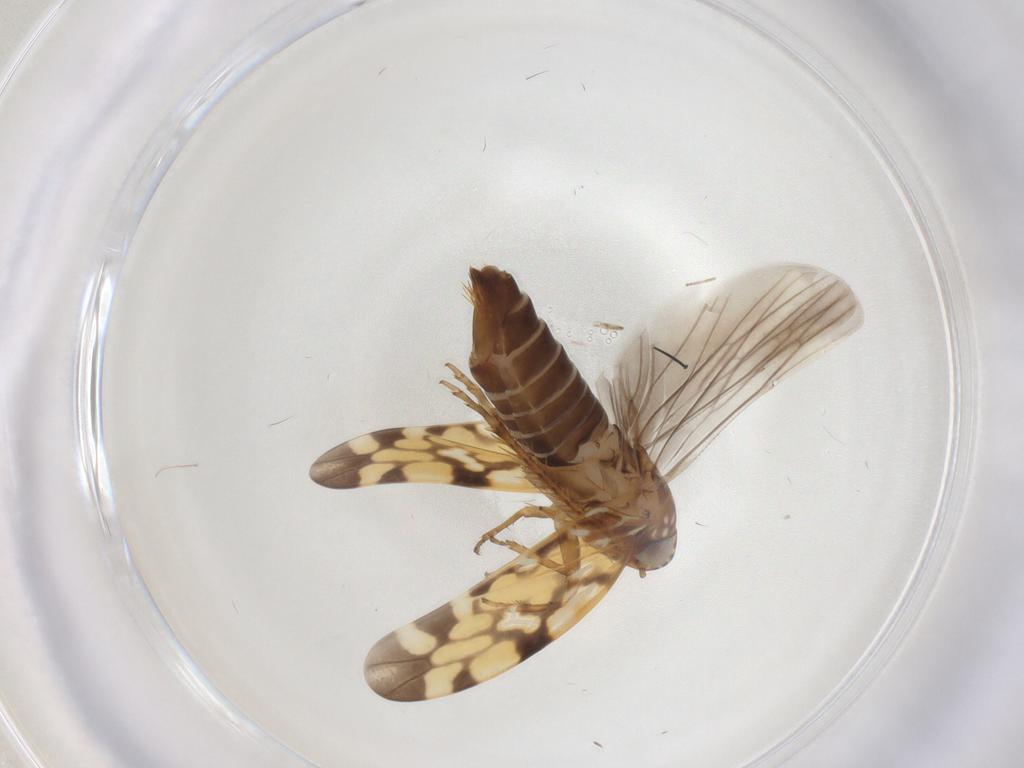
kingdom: Animalia
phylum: Arthropoda
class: Insecta
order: Hemiptera
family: Cicadellidae
